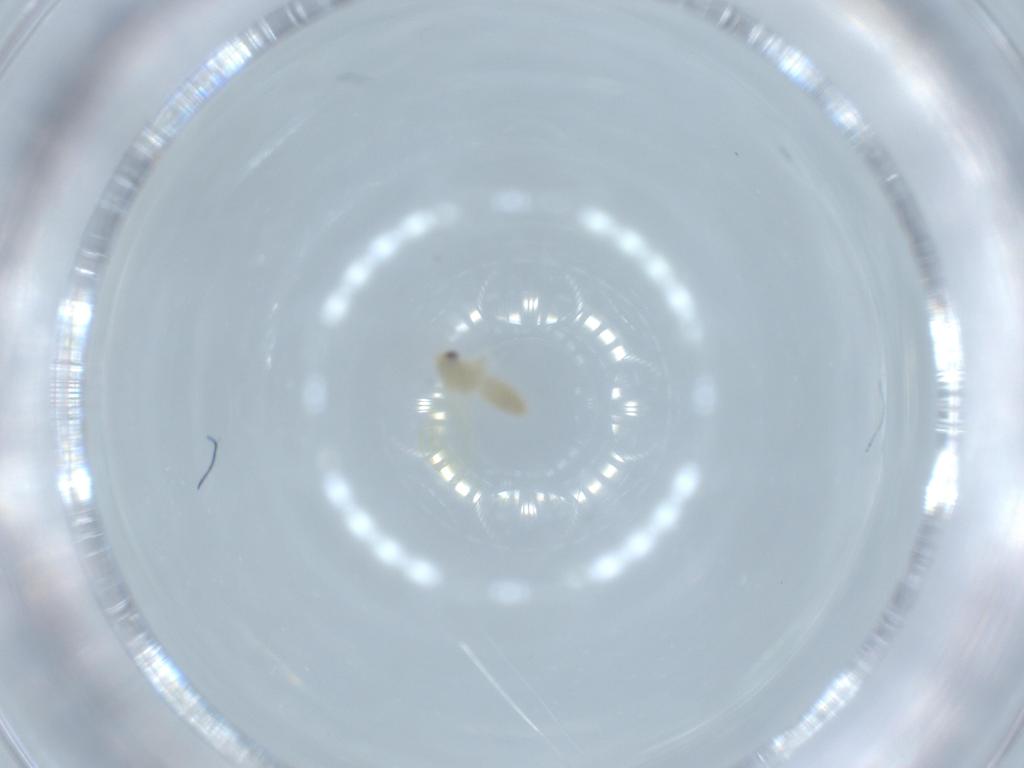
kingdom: Animalia
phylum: Arthropoda
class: Insecta
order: Hemiptera
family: Aleyrodidae
